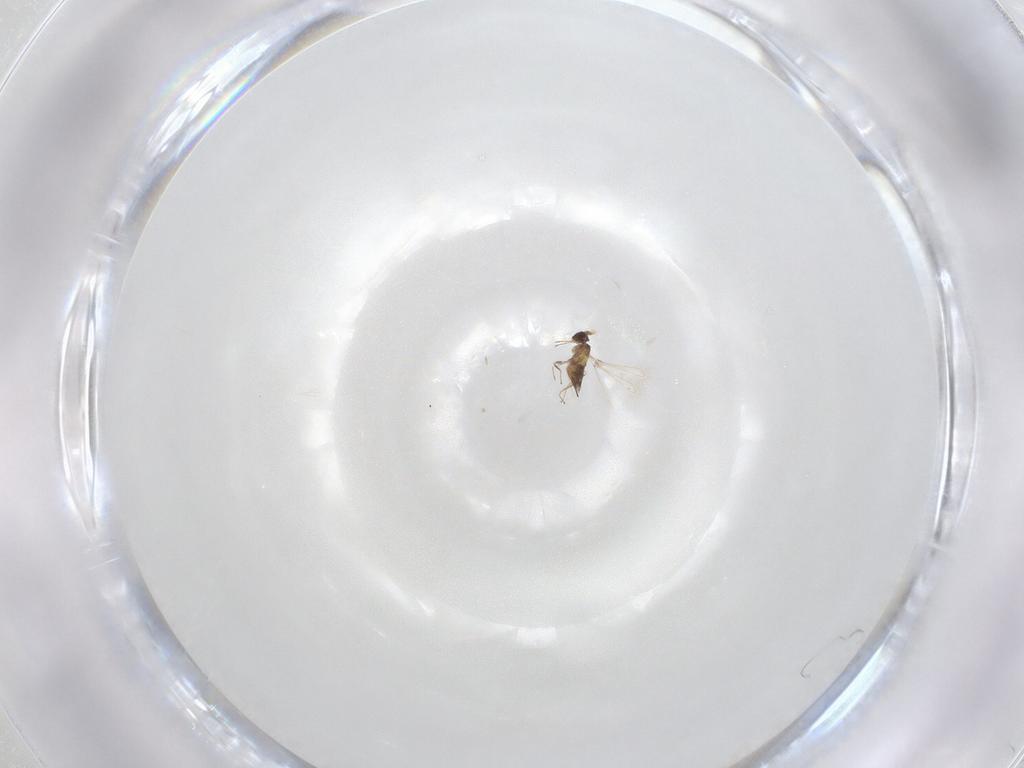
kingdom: Animalia
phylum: Arthropoda
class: Insecta
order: Hymenoptera
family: Mymaridae
